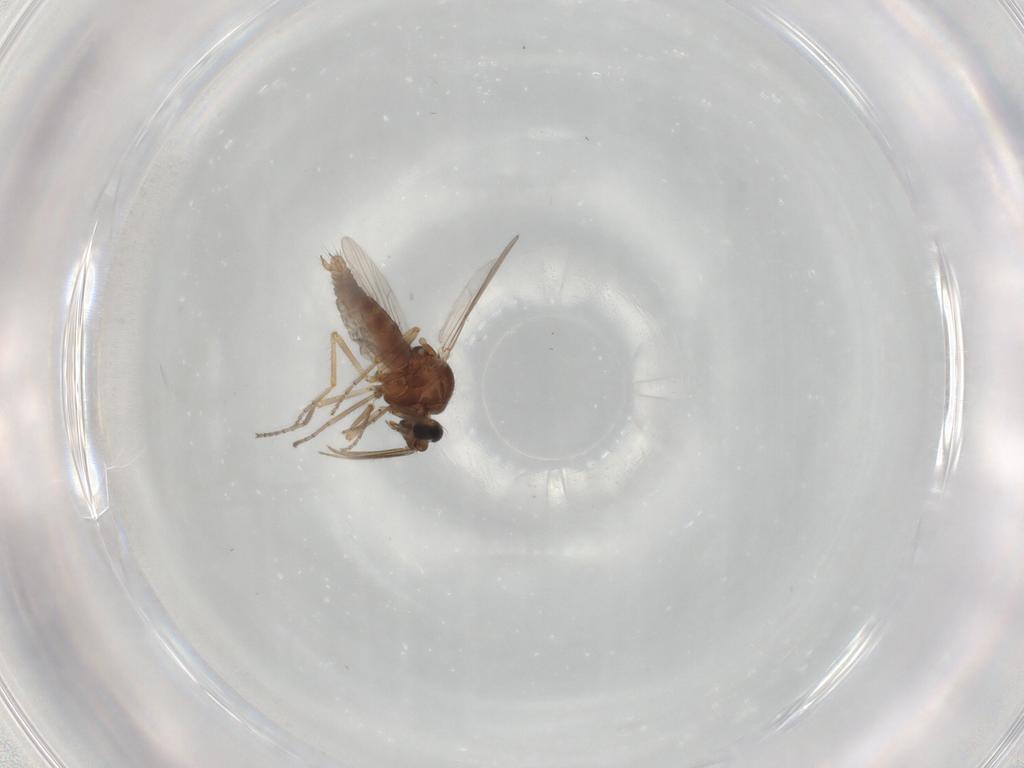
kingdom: Animalia
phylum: Arthropoda
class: Insecta
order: Diptera
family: Ceratopogonidae
